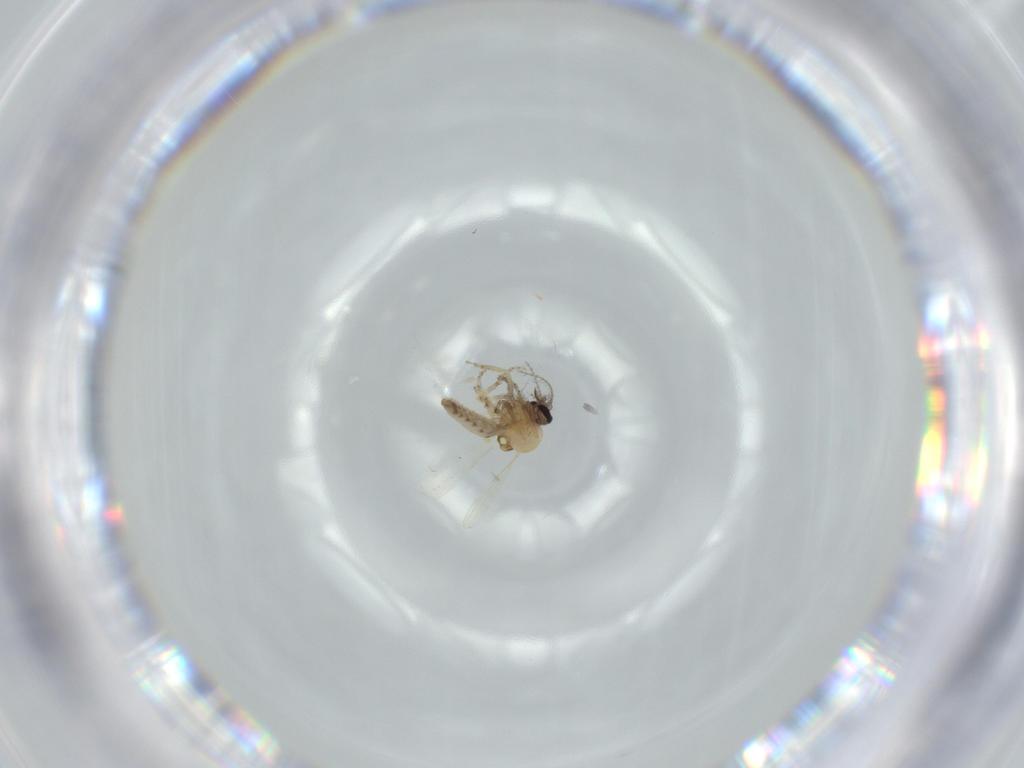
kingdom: Animalia
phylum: Arthropoda
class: Insecta
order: Diptera
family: Ceratopogonidae
